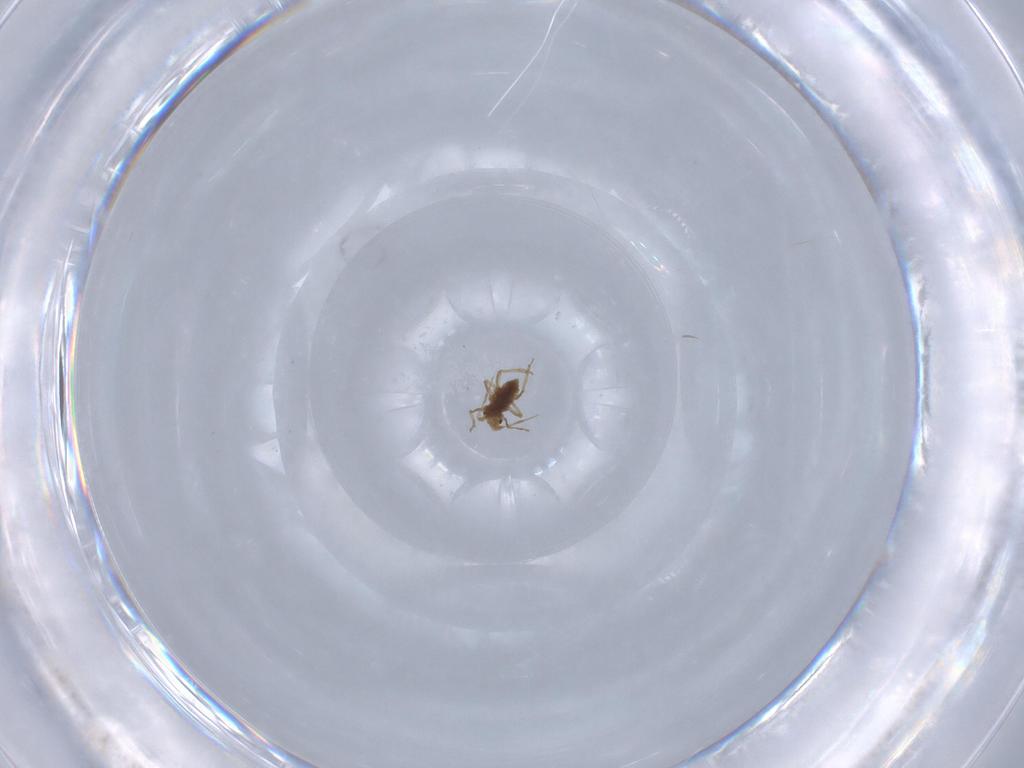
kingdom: Animalia
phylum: Arthropoda
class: Insecta
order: Hemiptera
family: Aphididae
